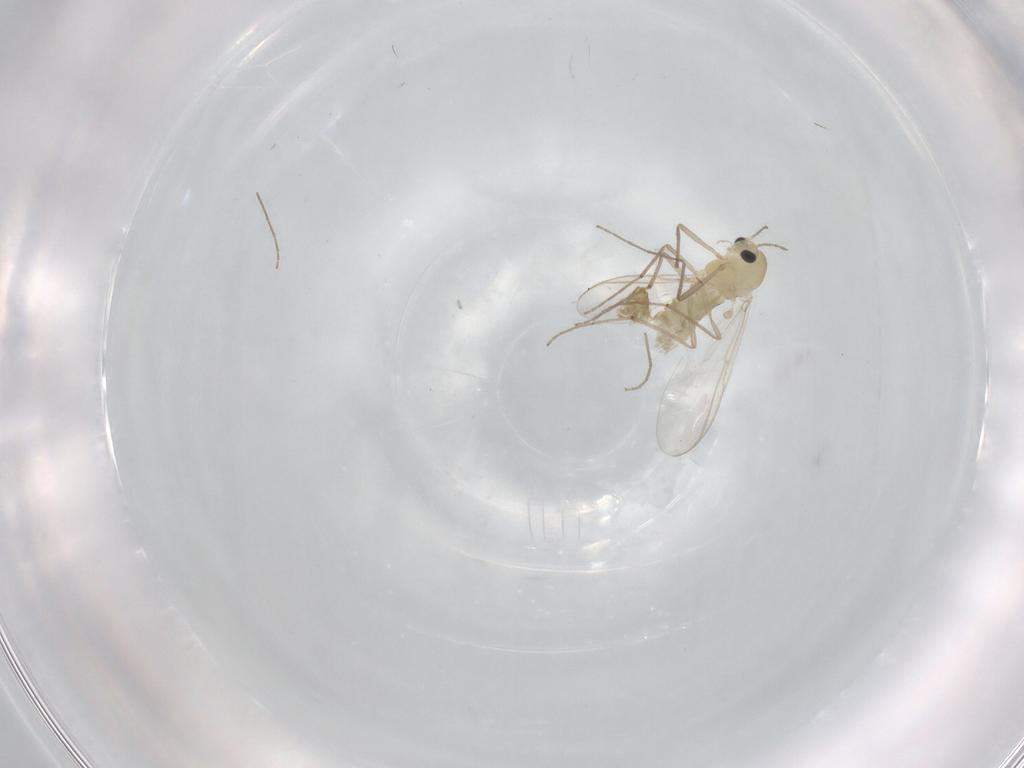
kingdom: Animalia
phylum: Arthropoda
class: Insecta
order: Diptera
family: Chironomidae
